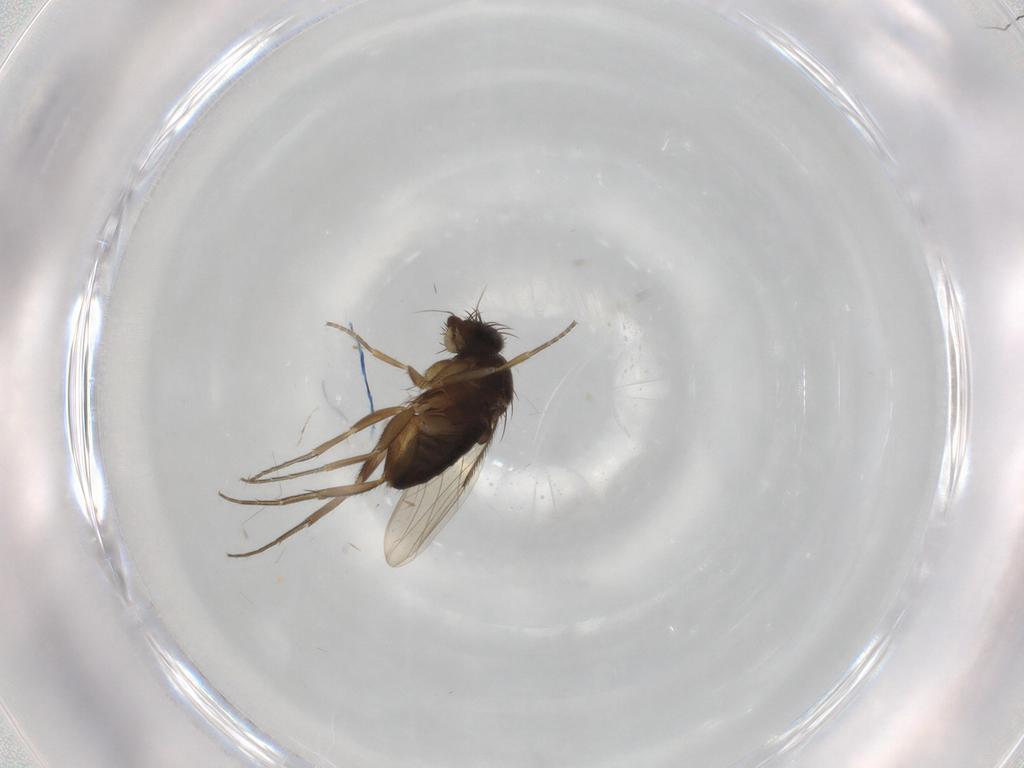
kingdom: Animalia
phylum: Arthropoda
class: Insecta
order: Diptera
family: Phoridae
